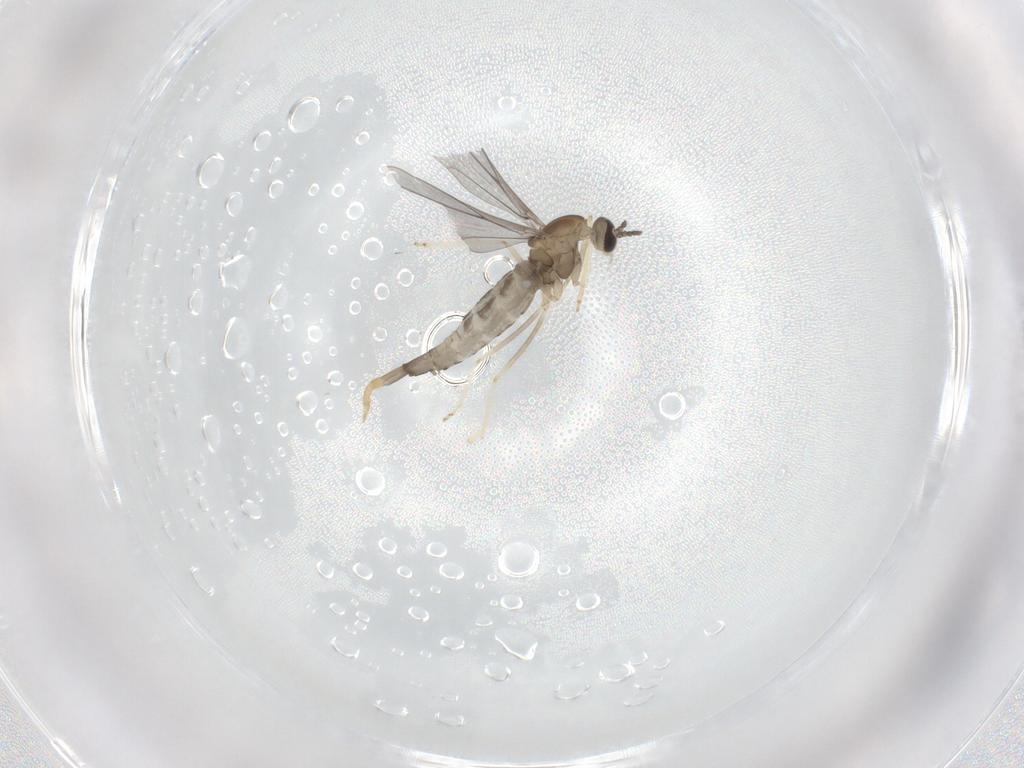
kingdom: Animalia
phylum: Arthropoda
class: Insecta
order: Diptera
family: Cecidomyiidae
